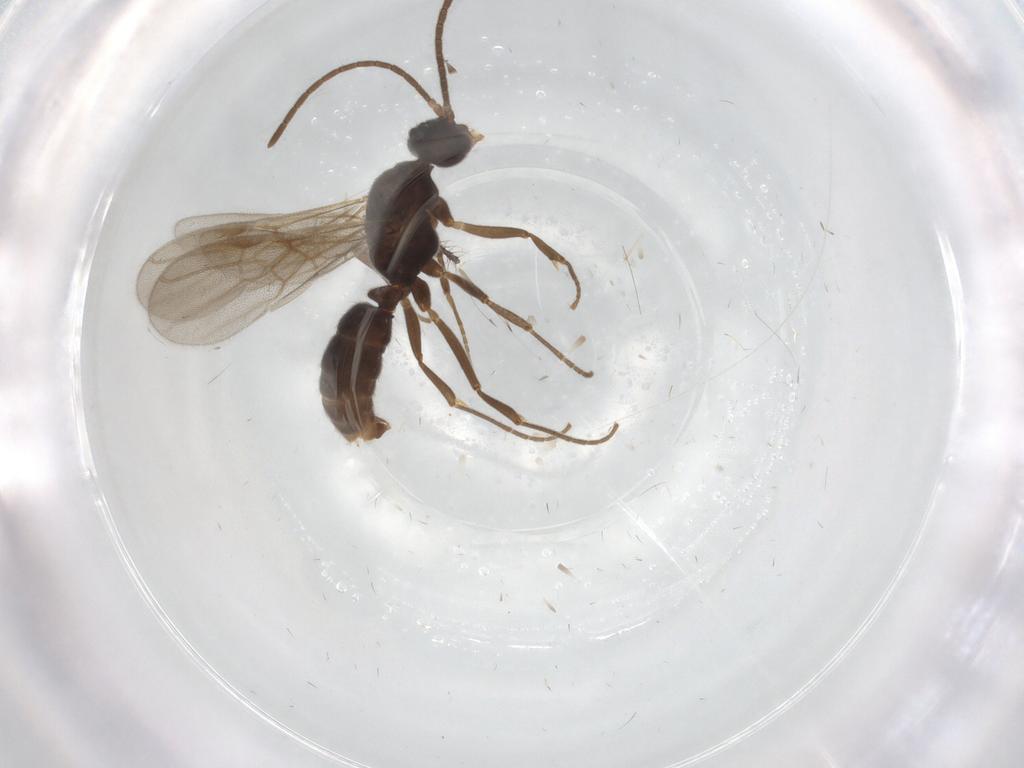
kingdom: Animalia
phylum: Arthropoda
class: Insecta
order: Hymenoptera
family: Formicidae
